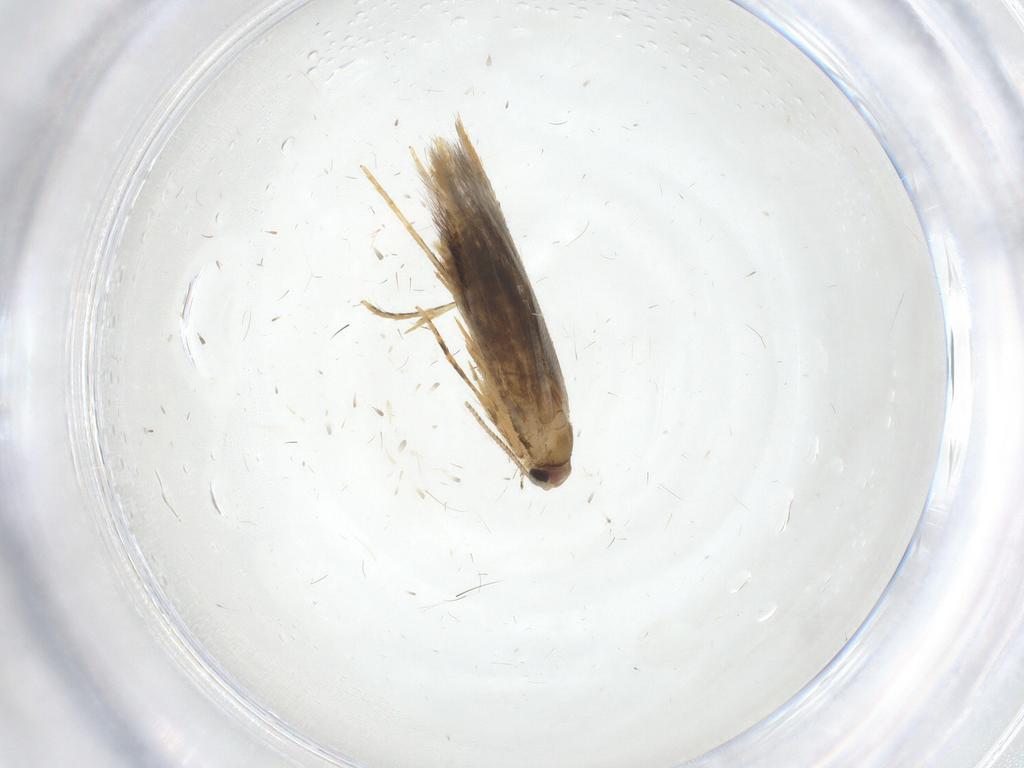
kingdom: Animalia
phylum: Arthropoda
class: Insecta
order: Lepidoptera
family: Tineidae
